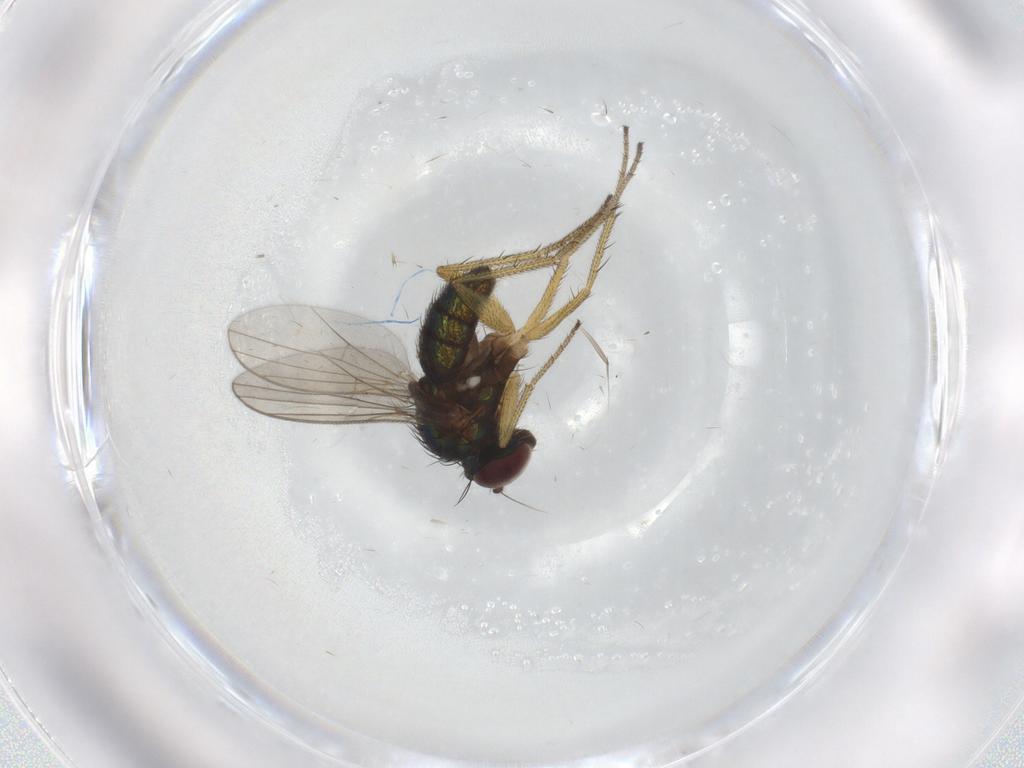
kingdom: Animalia
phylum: Arthropoda
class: Insecta
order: Diptera
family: Dolichopodidae
